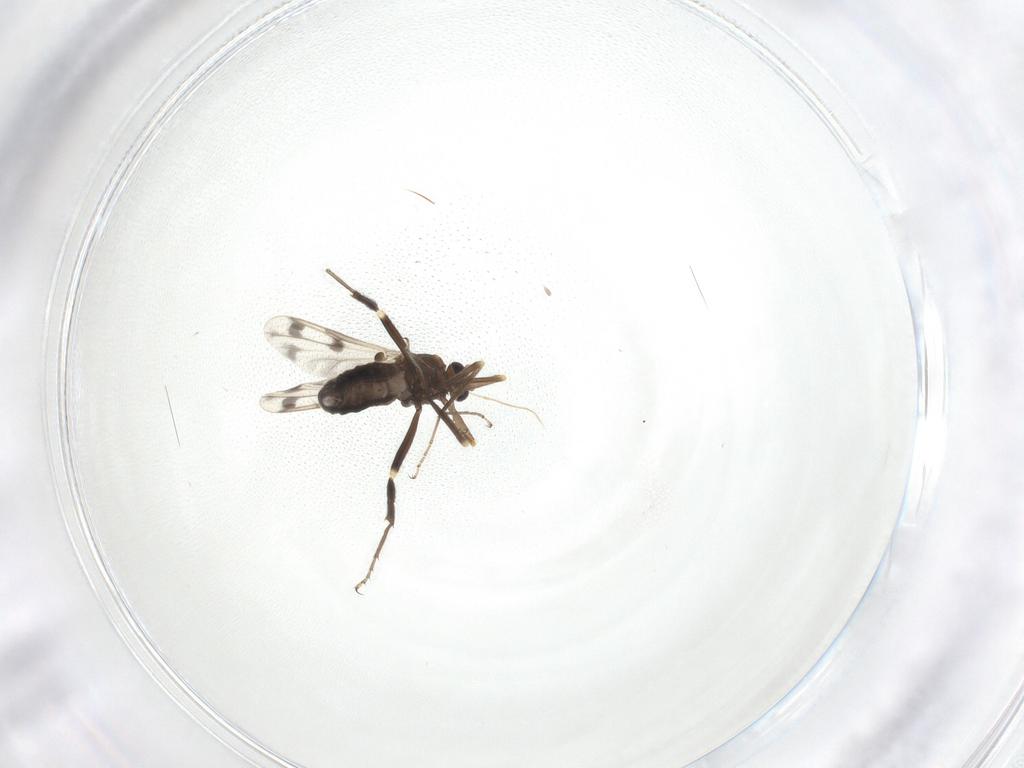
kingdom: Animalia
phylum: Arthropoda
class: Insecta
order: Diptera
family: Ceratopogonidae
